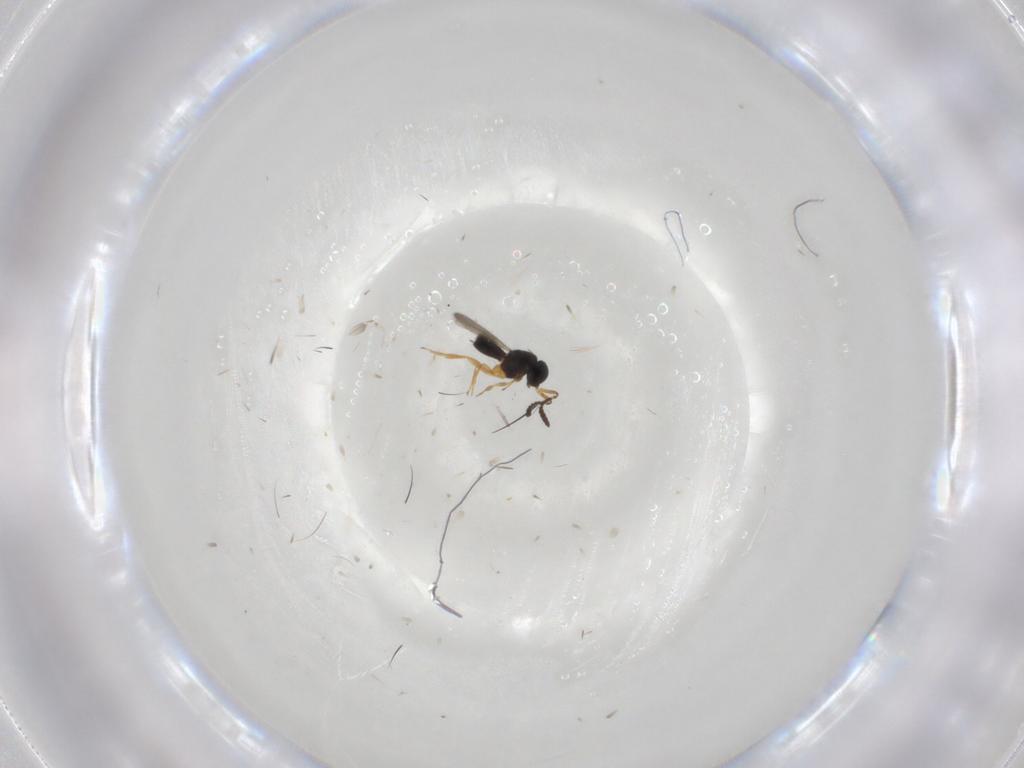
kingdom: Animalia
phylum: Arthropoda
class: Insecta
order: Hymenoptera
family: Scelionidae
